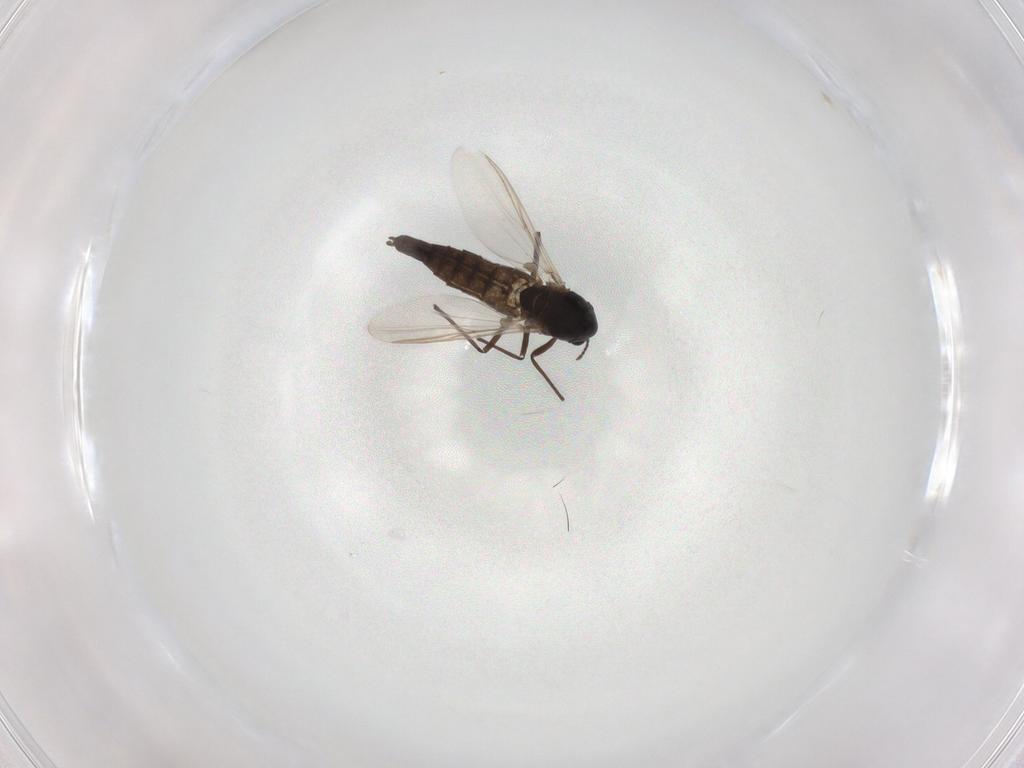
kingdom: Animalia
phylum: Arthropoda
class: Insecta
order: Diptera
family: Chironomidae
